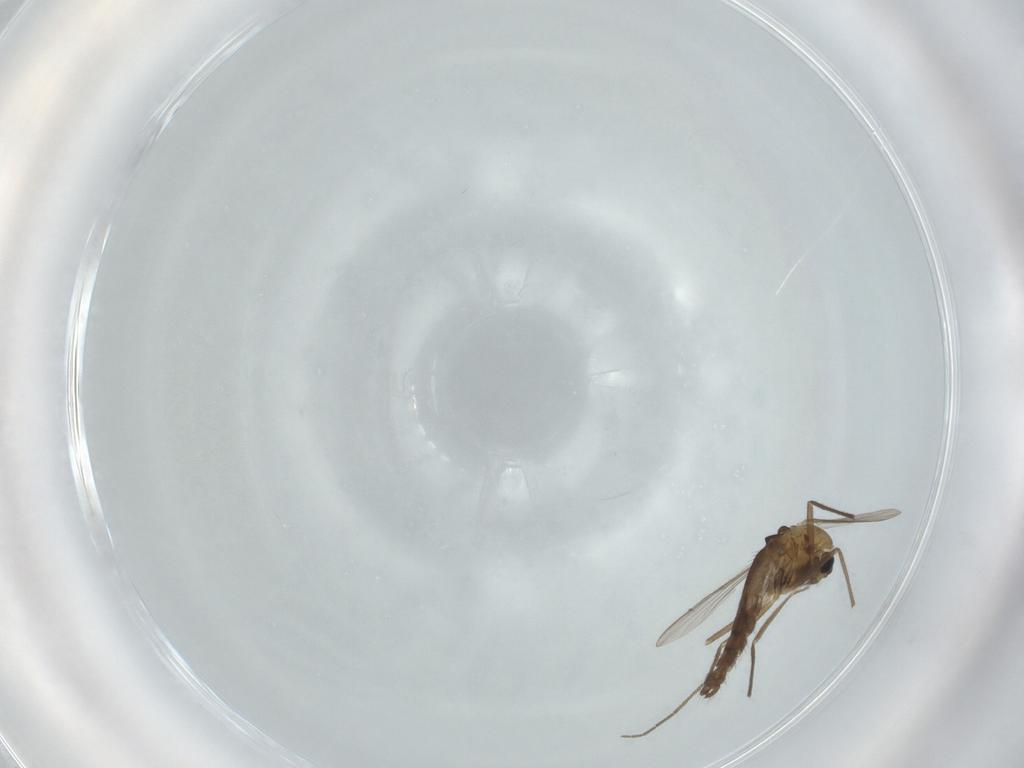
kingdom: Animalia
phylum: Arthropoda
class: Insecta
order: Diptera
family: Chironomidae
